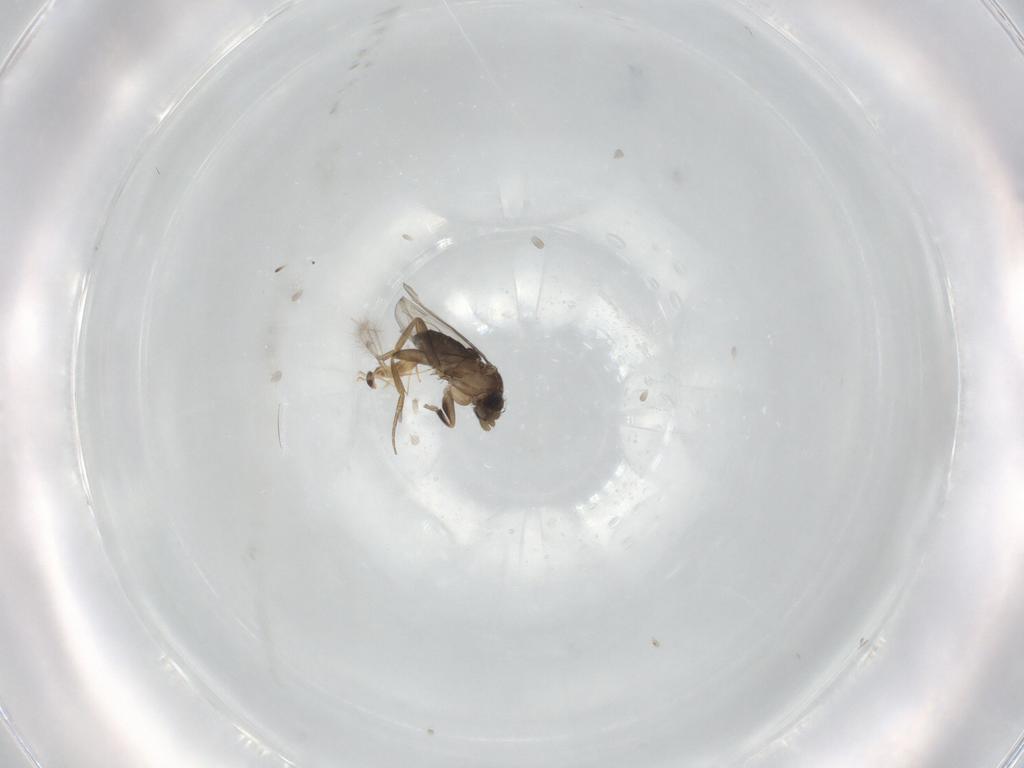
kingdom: Animalia
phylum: Arthropoda
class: Insecta
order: Diptera
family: Phoridae
